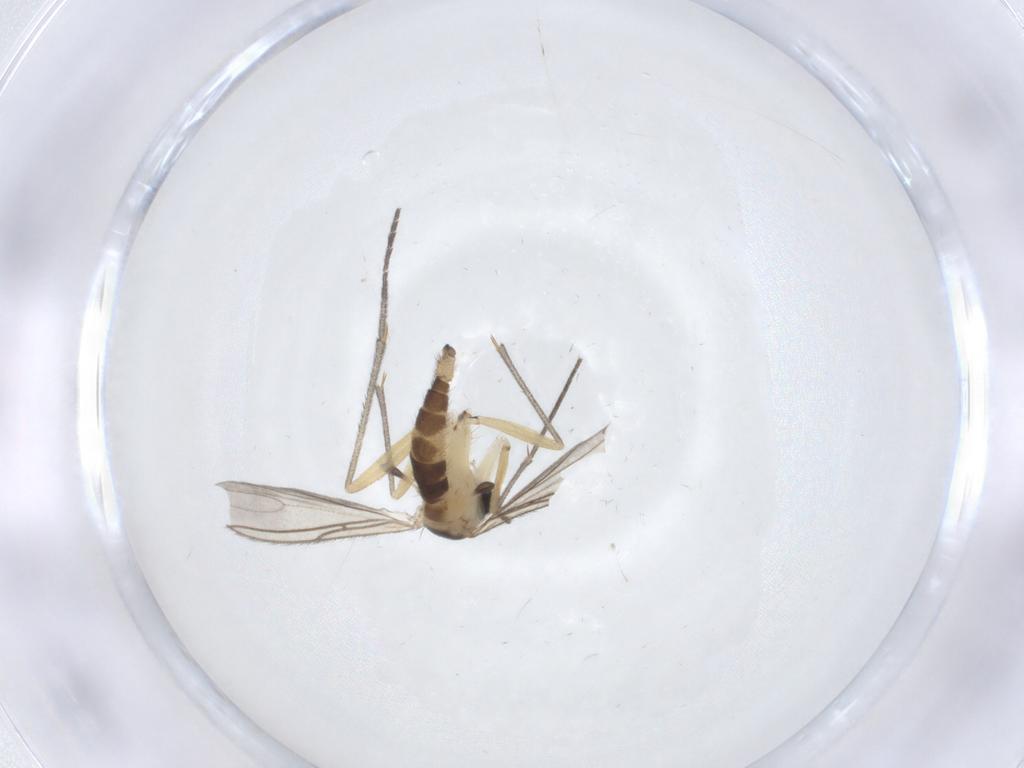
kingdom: Animalia
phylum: Arthropoda
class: Insecta
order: Diptera
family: Sciaridae
